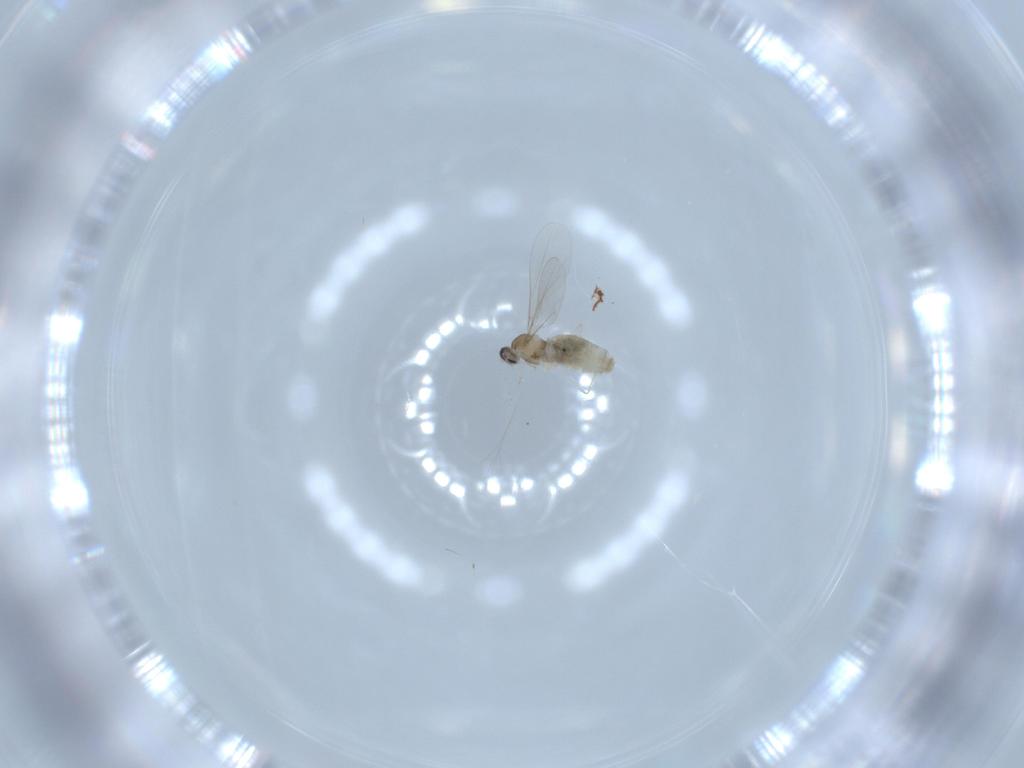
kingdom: Animalia
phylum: Arthropoda
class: Insecta
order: Diptera
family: Cecidomyiidae
